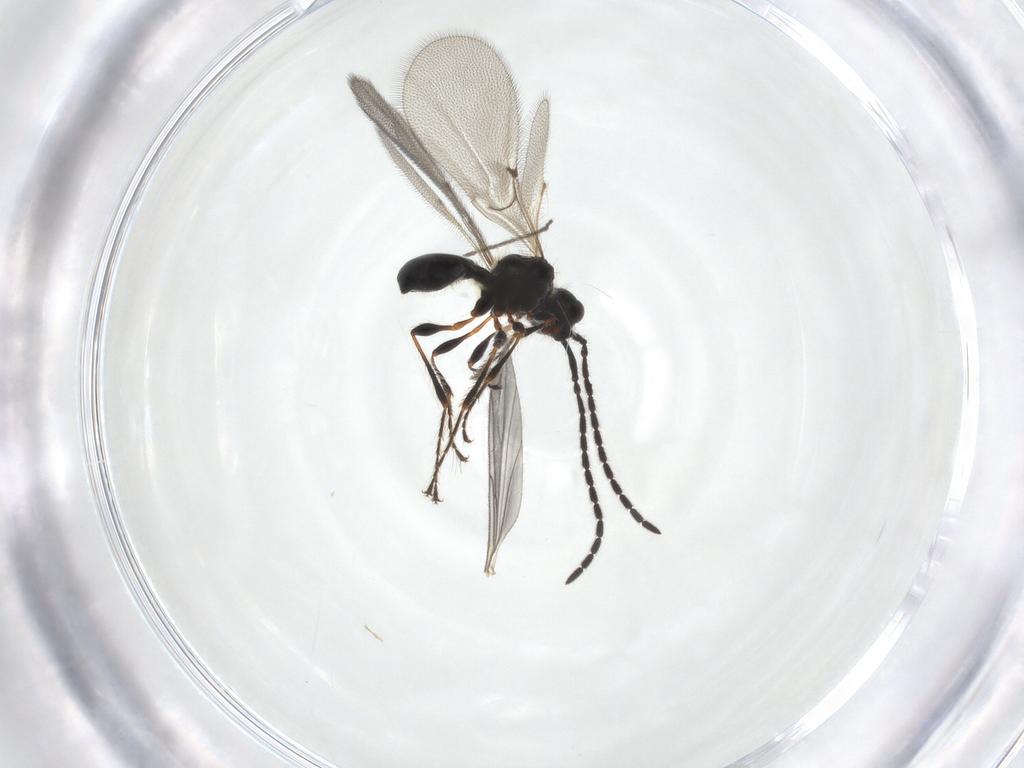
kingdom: Animalia
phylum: Arthropoda
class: Insecta
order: Hymenoptera
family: Diapriidae
